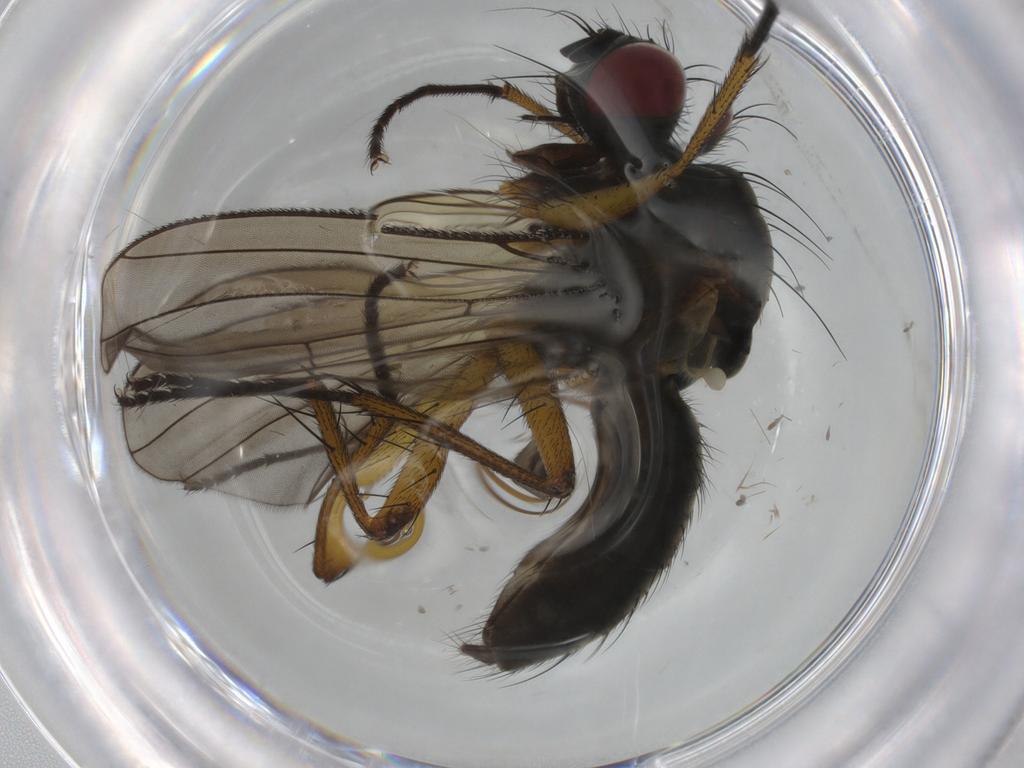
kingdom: Animalia
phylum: Arthropoda
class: Insecta
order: Diptera
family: Muscidae
